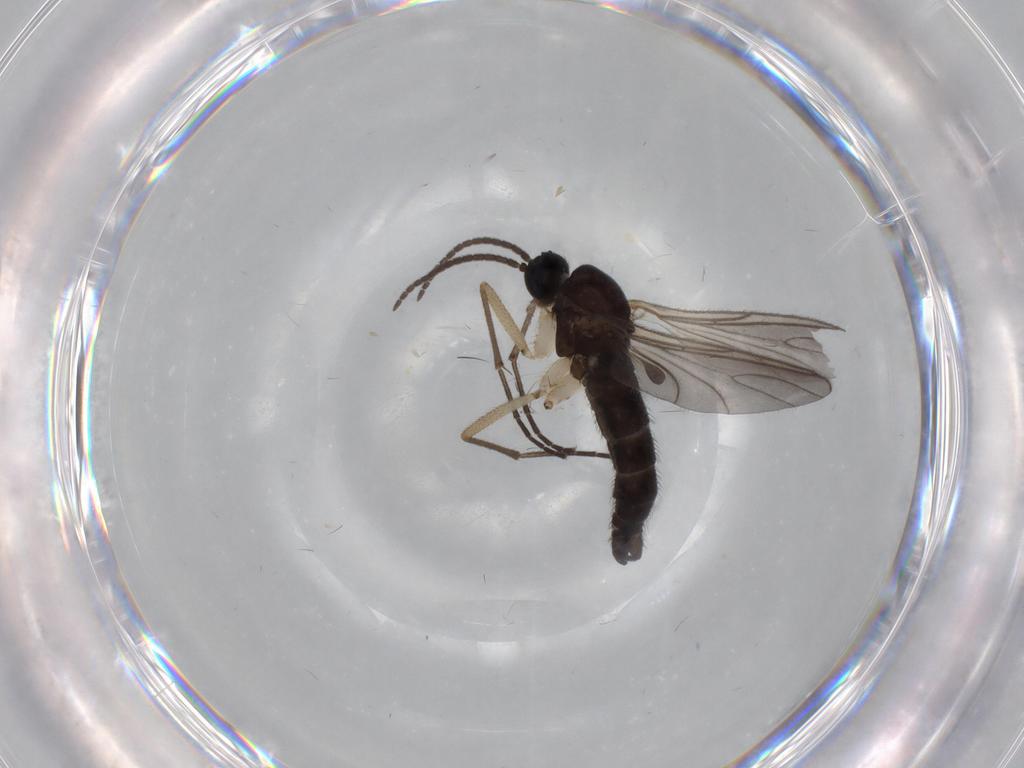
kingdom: Animalia
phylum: Arthropoda
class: Insecta
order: Diptera
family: Sciaridae
